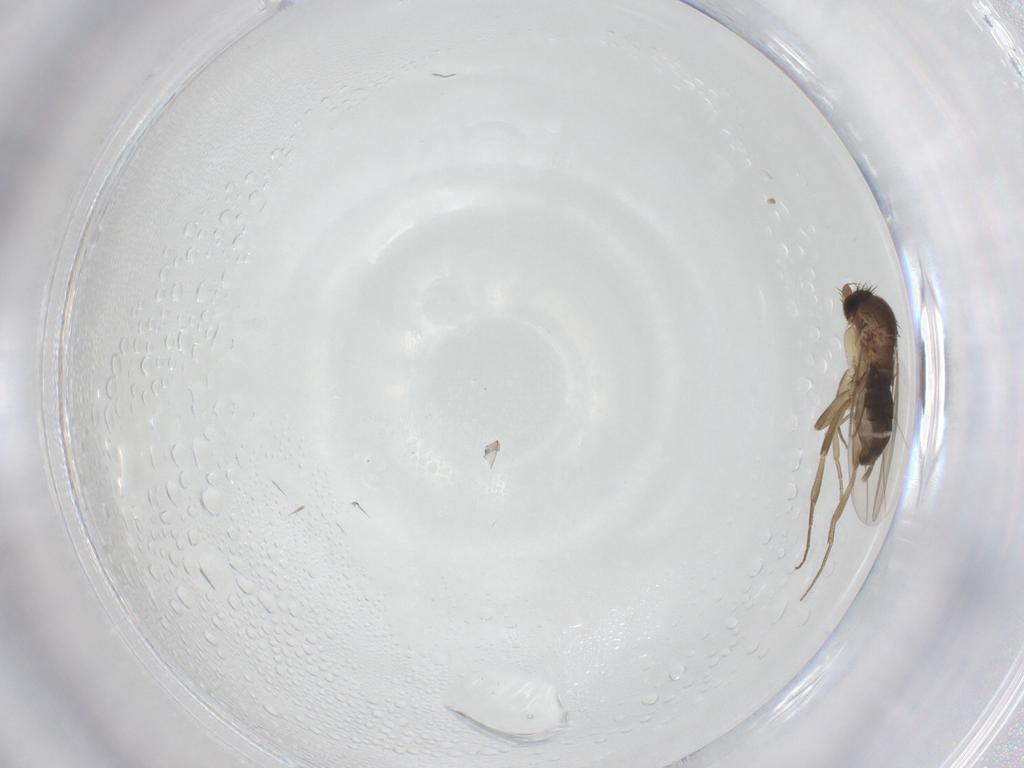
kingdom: Animalia
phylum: Arthropoda
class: Insecta
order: Diptera
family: Phoridae
